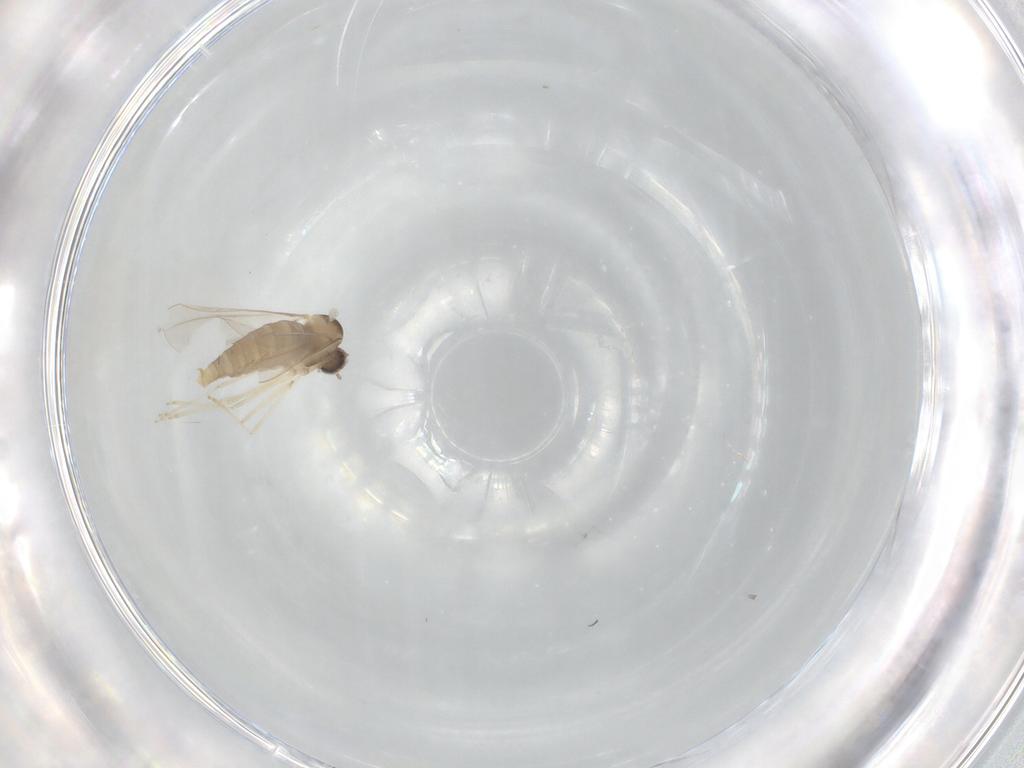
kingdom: Animalia
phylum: Arthropoda
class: Insecta
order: Diptera
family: Cecidomyiidae
